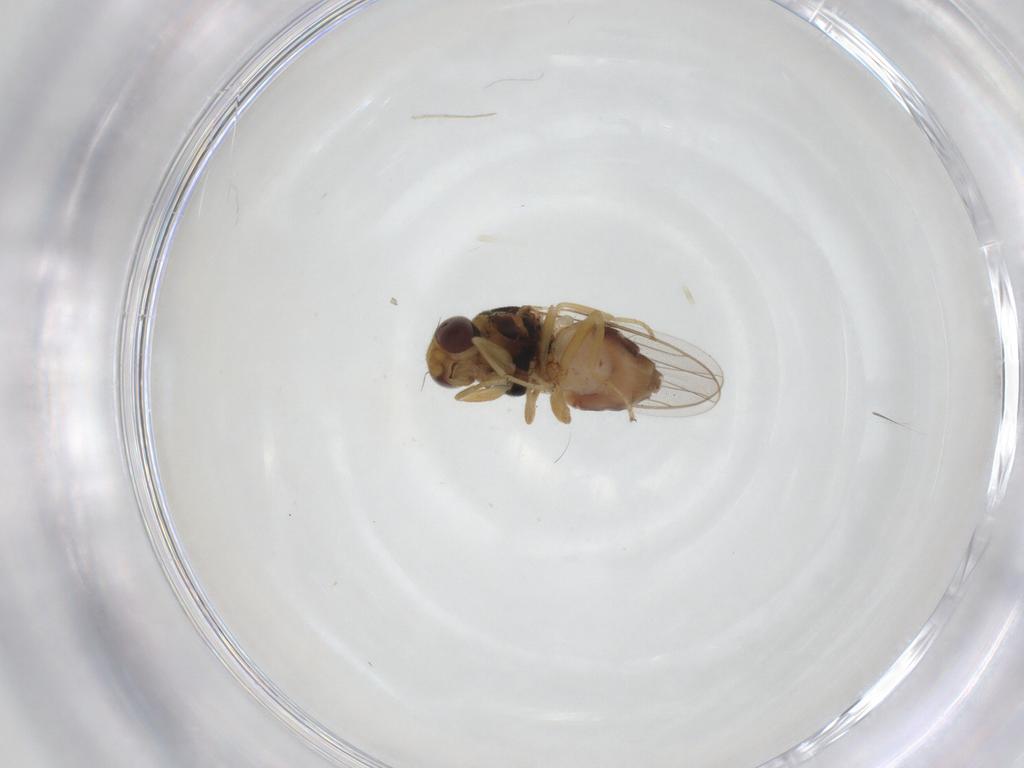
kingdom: Animalia
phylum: Arthropoda
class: Insecta
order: Diptera
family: Chloropidae
